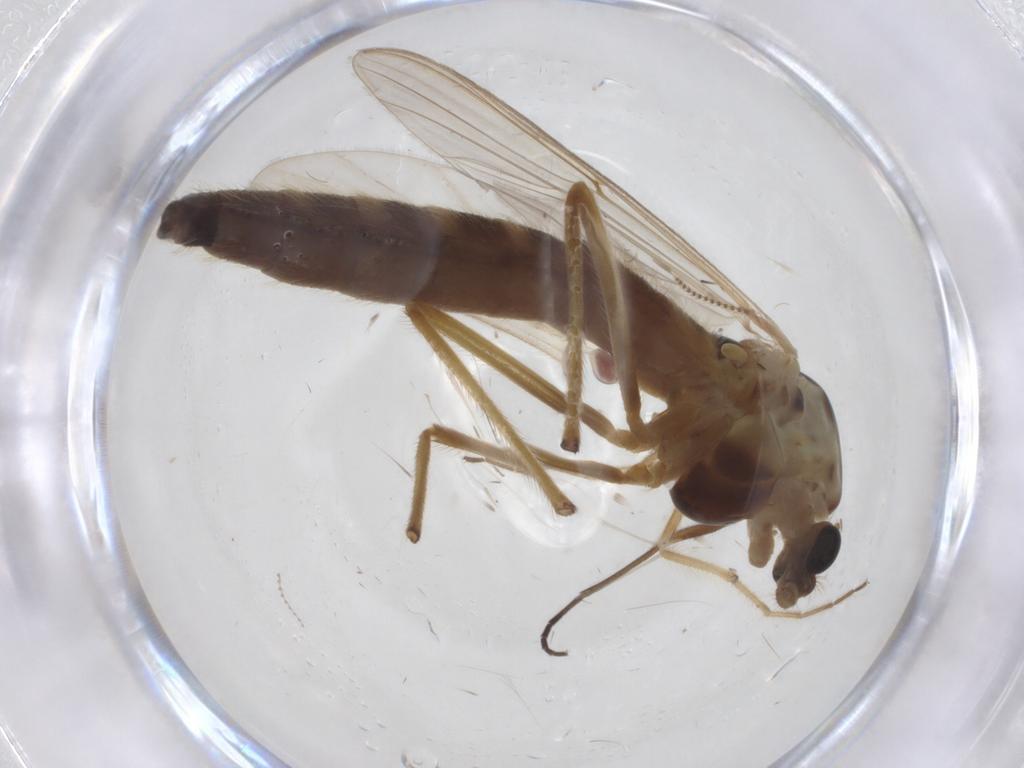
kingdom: Animalia
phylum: Arthropoda
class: Insecta
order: Diptera
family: Chironomidae
